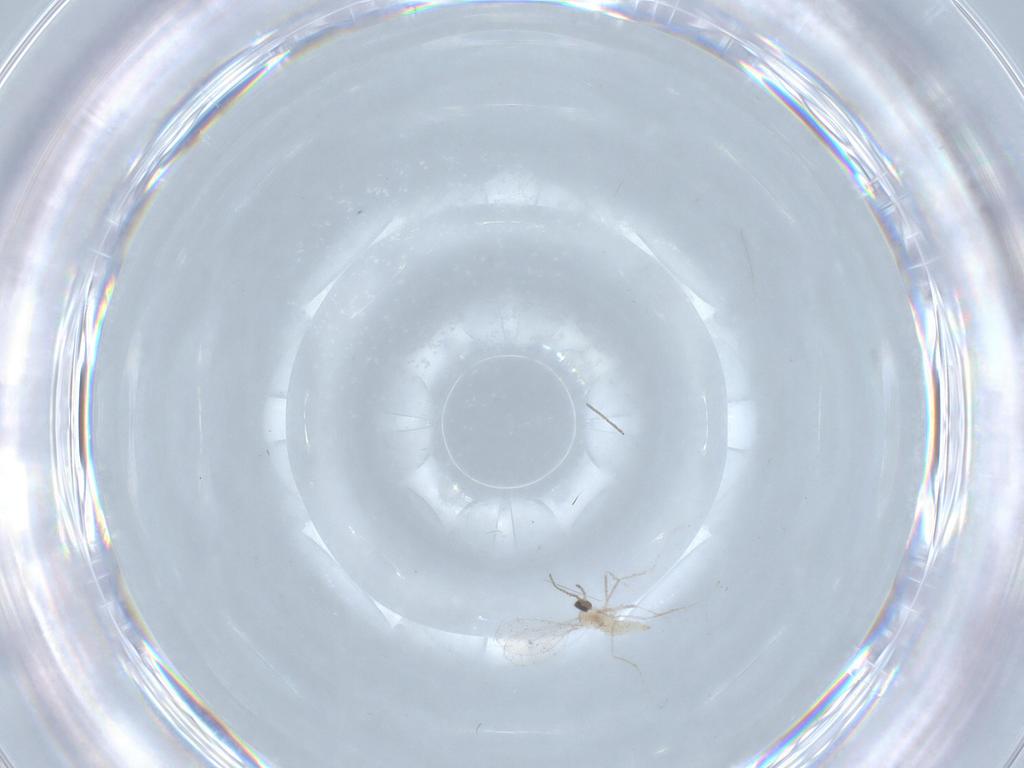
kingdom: Animalia
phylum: Arthropoda
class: Insecta
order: Diptera
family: Cecidomyiidae
